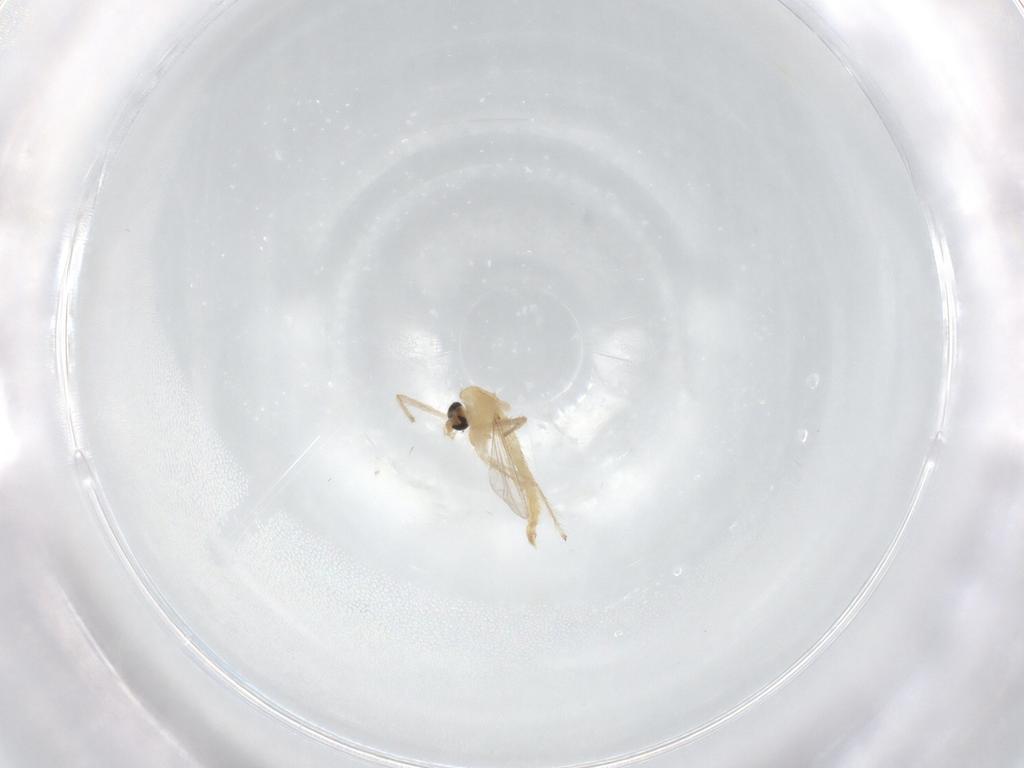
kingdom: Animalia
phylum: Arthropoda
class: Insecta
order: Diptera
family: Chironomidae
